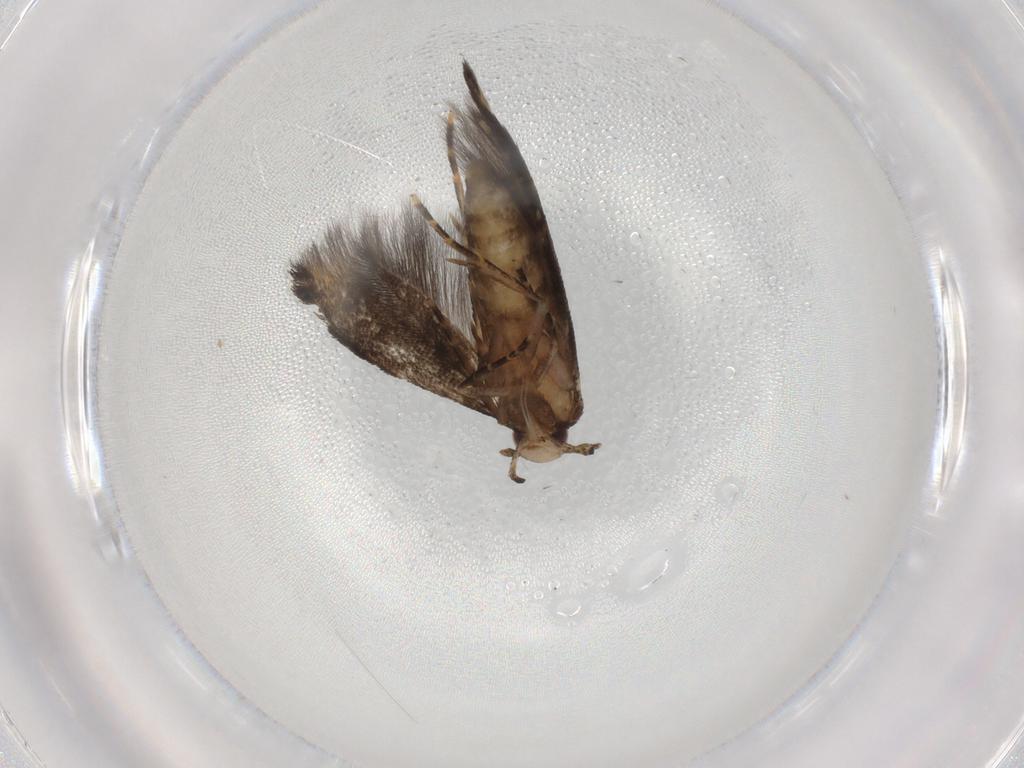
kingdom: Animalia
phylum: Arthropoda
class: Insecta
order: Lepidoptera
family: Cosmopterigidae
